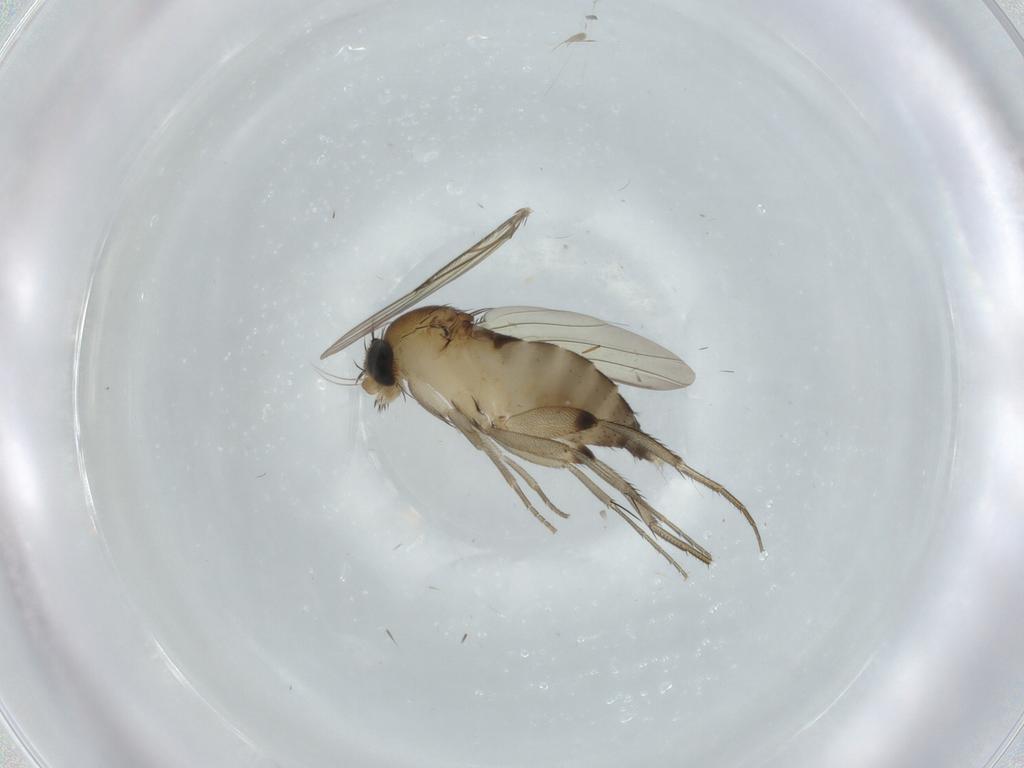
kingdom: Animalia
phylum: Arthropoda
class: Insecta
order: Diptera
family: Phoridae
